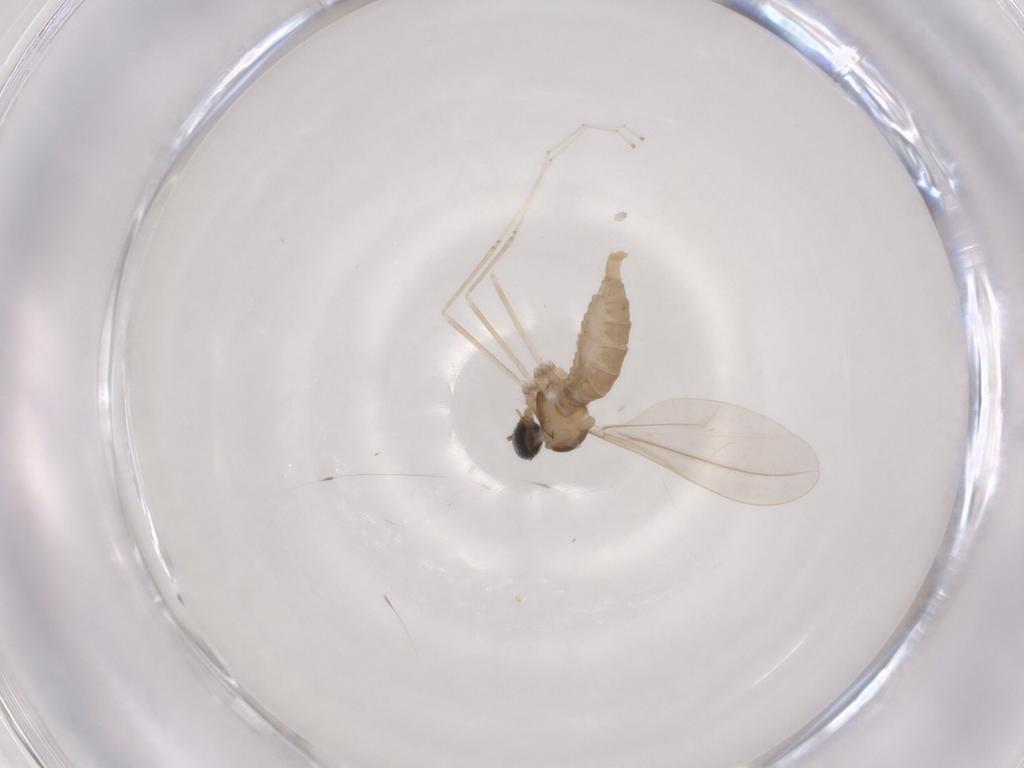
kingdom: Animalia
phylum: Arthropoda
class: Insecta
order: Diptera
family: Cecidomyiidae
